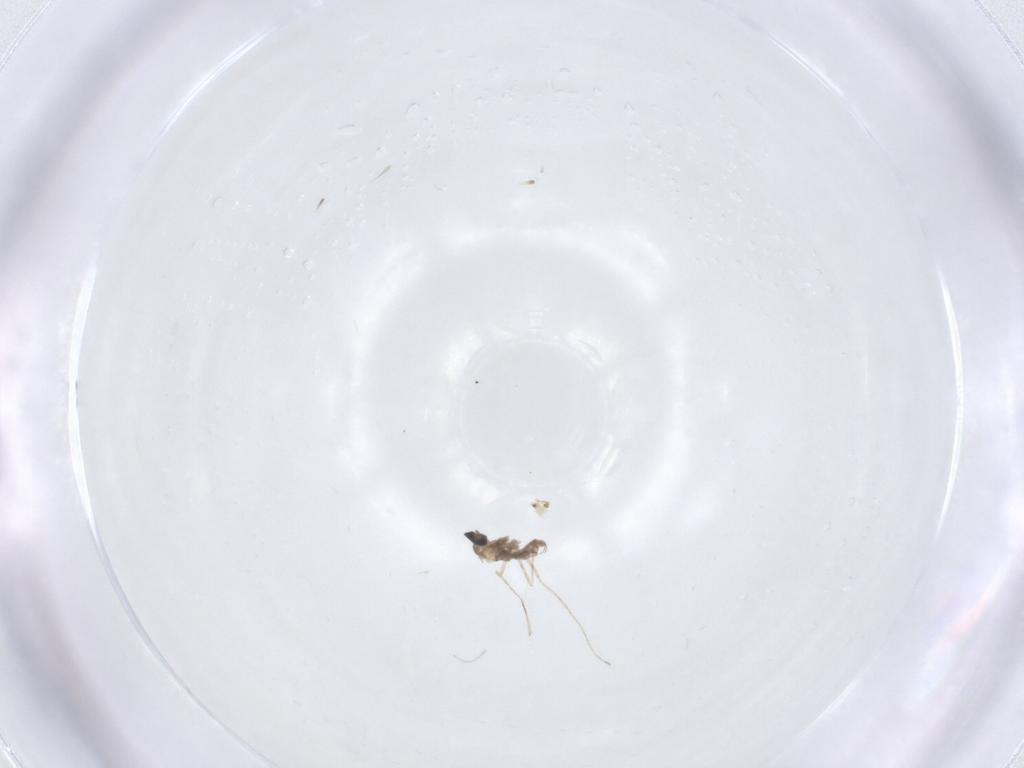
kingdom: Animalia
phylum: Arthropoda
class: Insecta
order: Diptera
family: Cecidomyiidae
